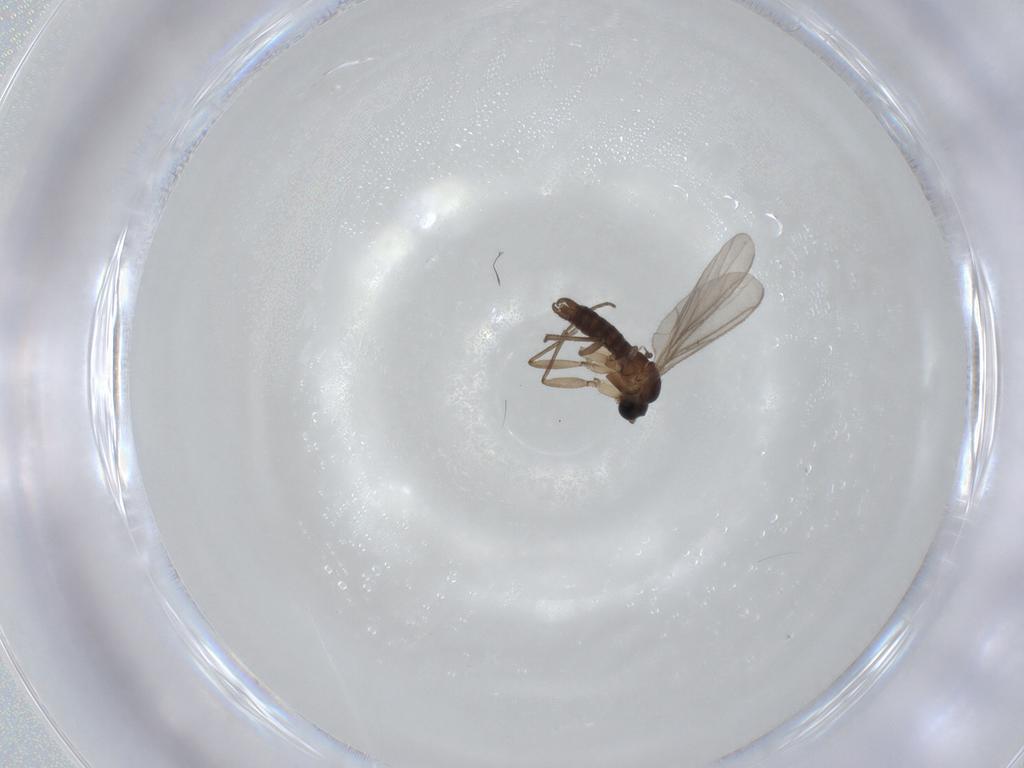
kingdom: Animalia
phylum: Arthropoda
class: Insecta
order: Diptera
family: Sciaridae
